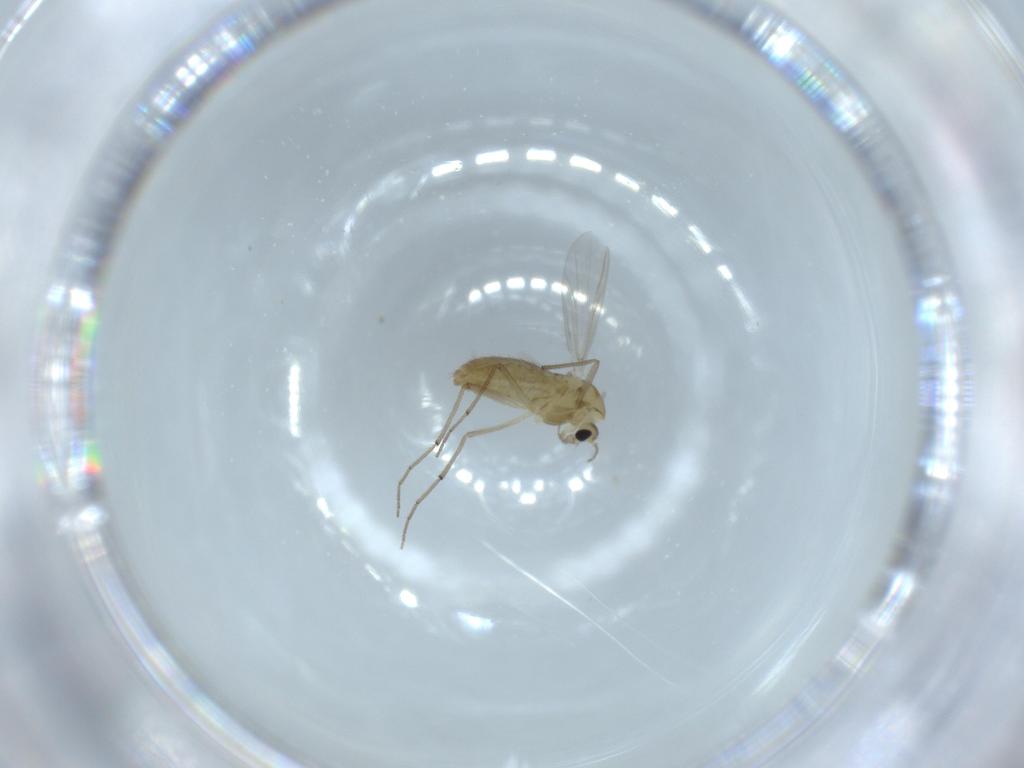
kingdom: Animalia
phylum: Arthropoda
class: Insecta
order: Diptera
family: Chironomidae
